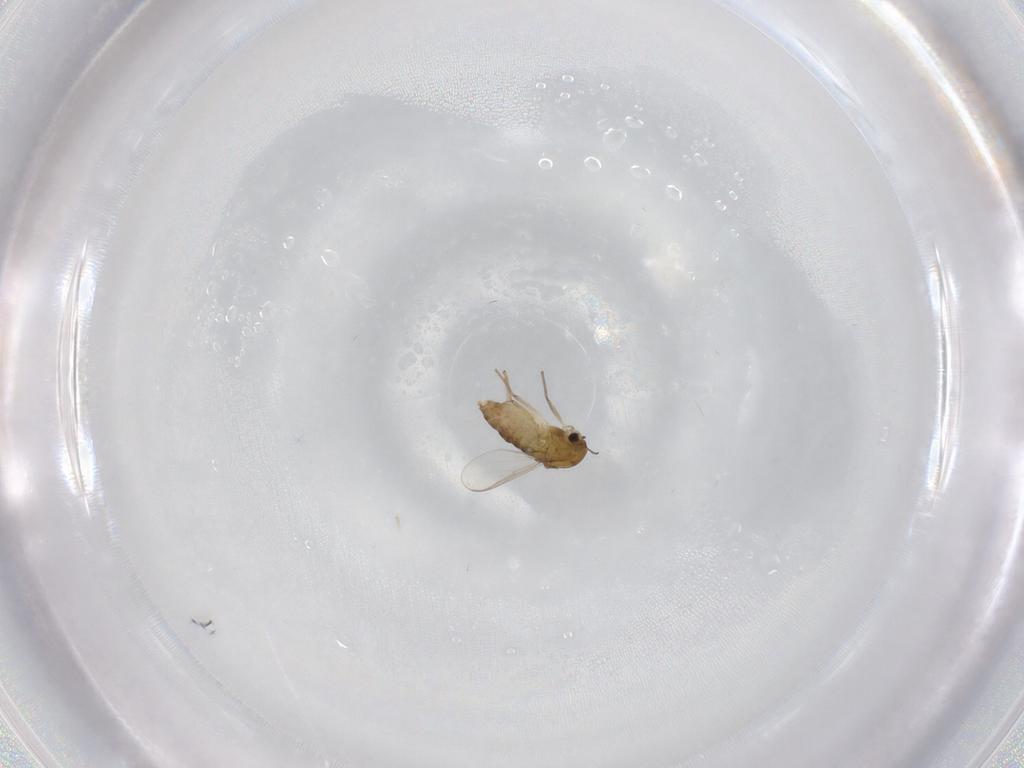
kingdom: Animalia
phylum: Arthropoda
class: Insecta
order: Diptera
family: Chironomidae
